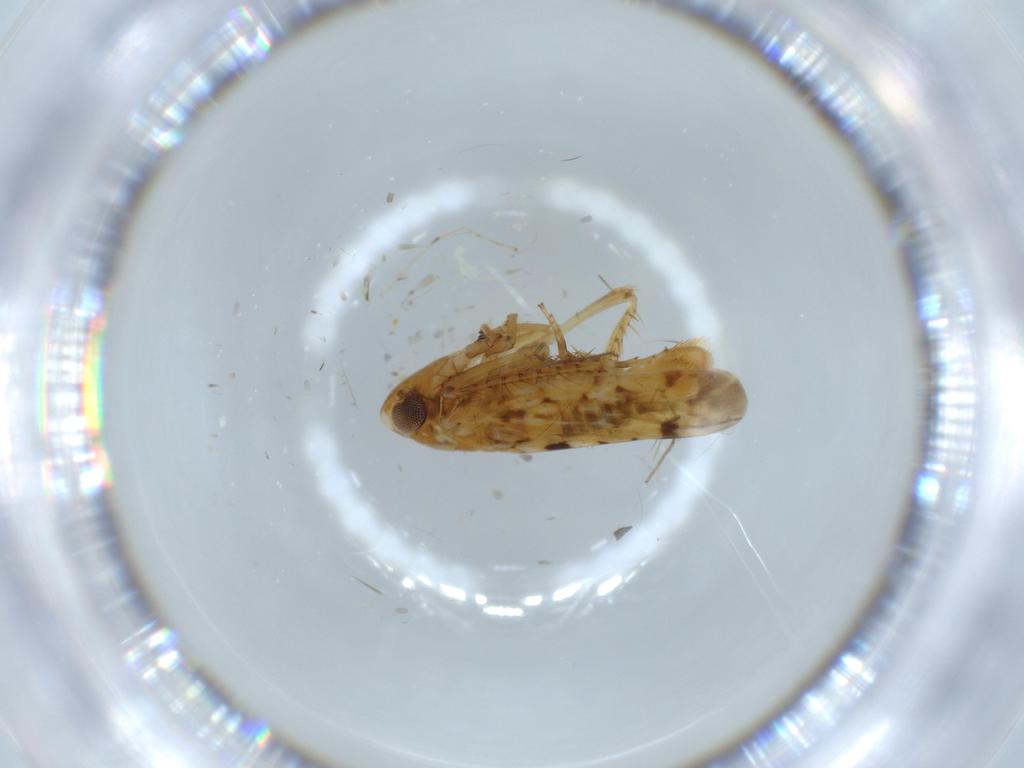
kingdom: Animalia
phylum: Arthropoda
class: Insecta
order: Hemiptera
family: Cicadellidae
